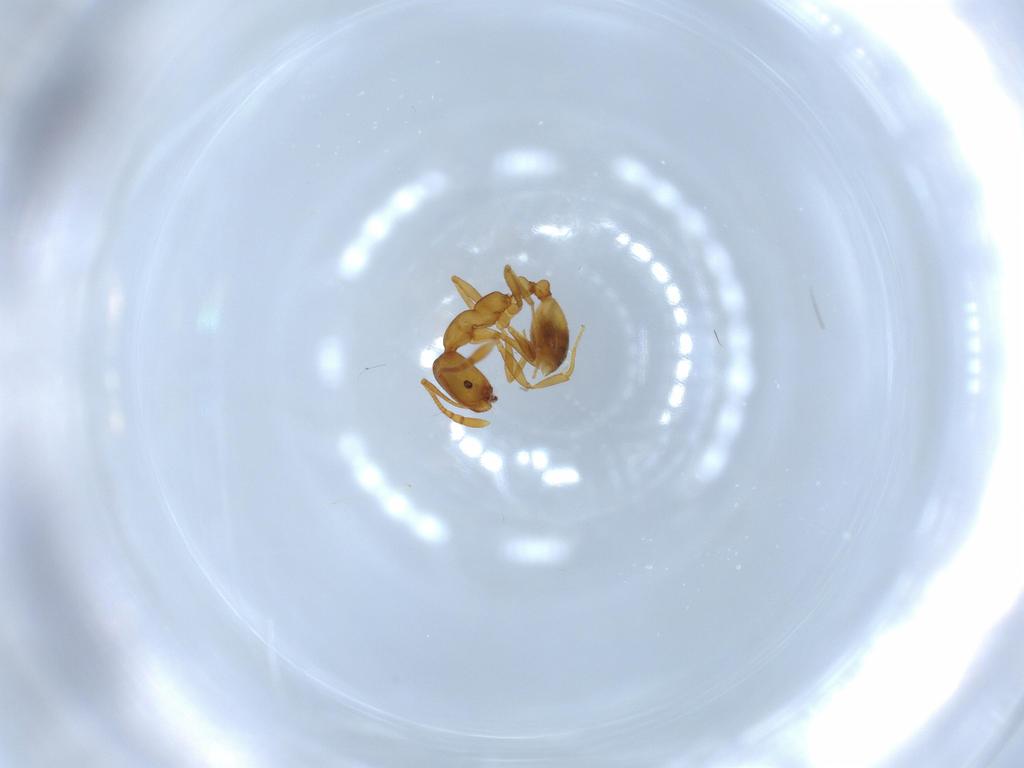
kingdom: Animalia
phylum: Arthropoda
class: Insecta
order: Hymenoptera
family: Formicidae
